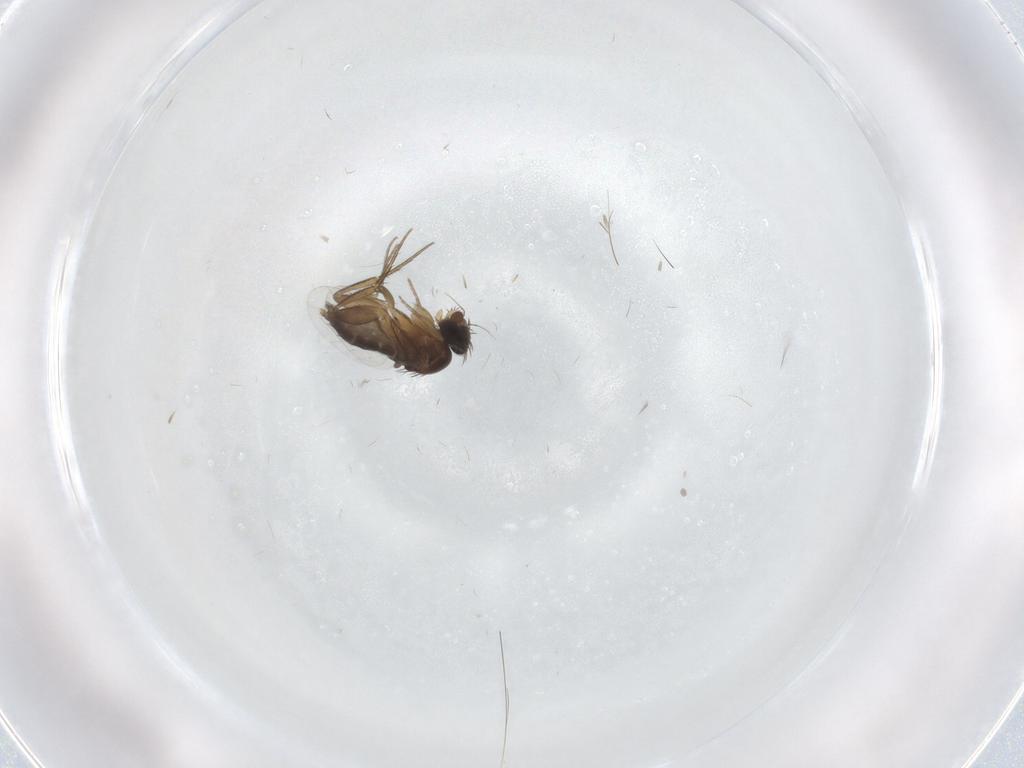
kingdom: Animalia
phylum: Arthropoda
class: Insecta
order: Diptera
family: Phoridae
